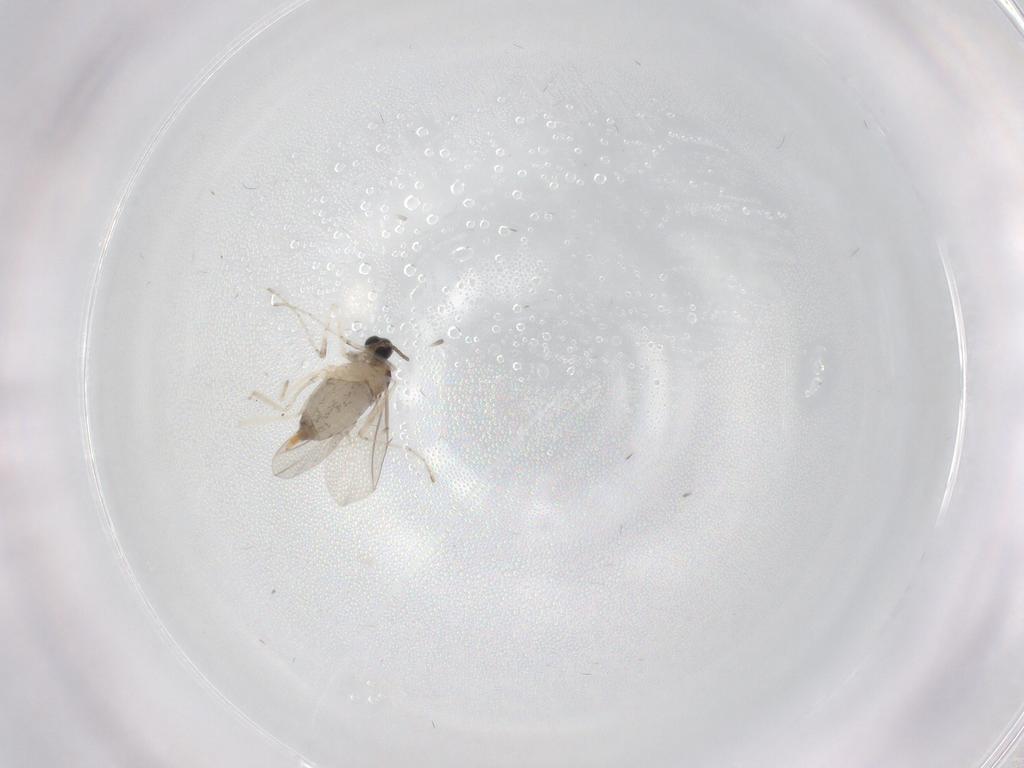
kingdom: Animalia
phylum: Arthropoda
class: Insecta
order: Diptera
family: Cecidomyiidae
